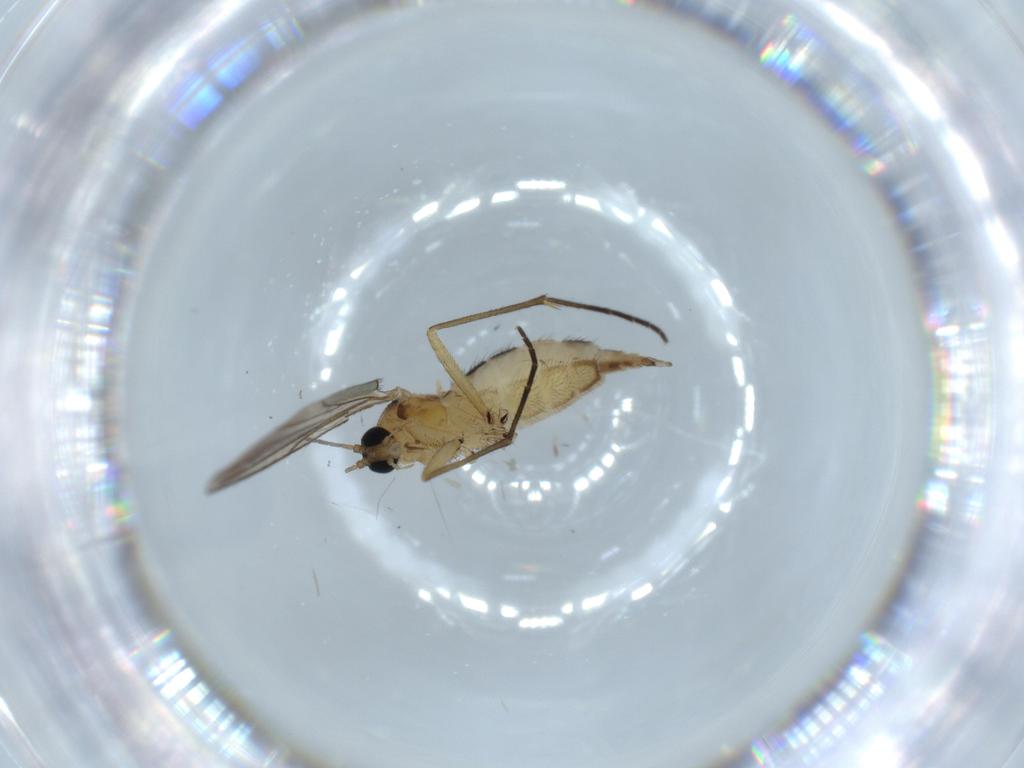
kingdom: Animalia
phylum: Arthropoda
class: Insecta
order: Diptera
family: Sciaridae
